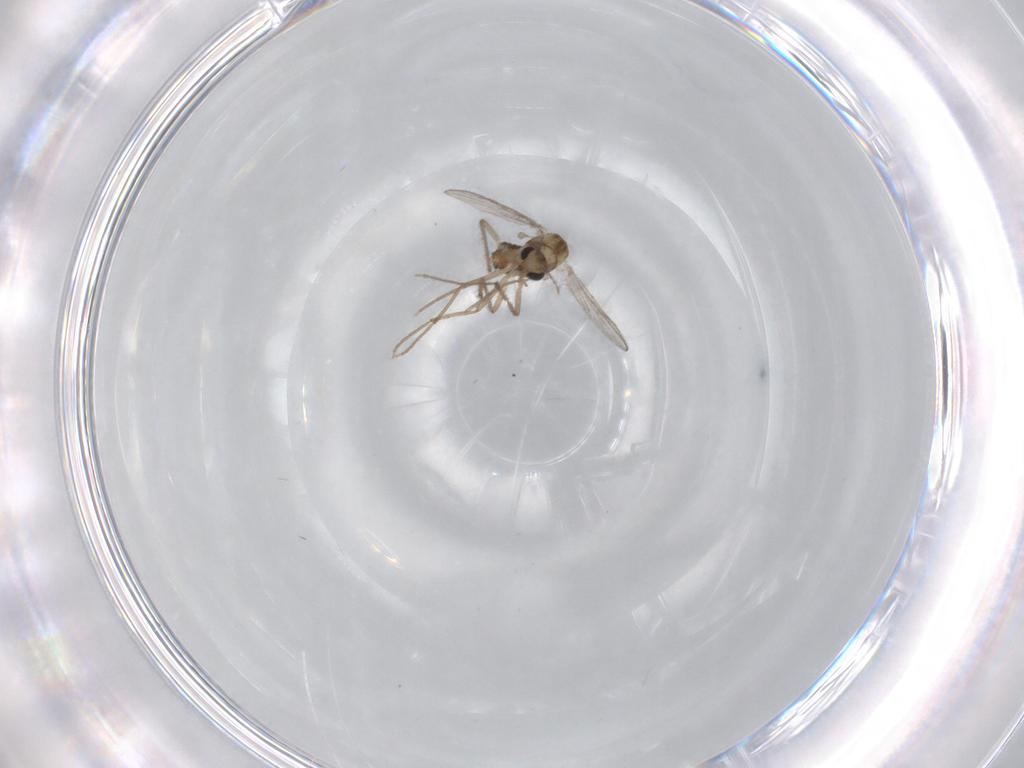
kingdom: Animalia
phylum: Arthropoda
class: Insecta
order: Diptera
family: Chironomidae
